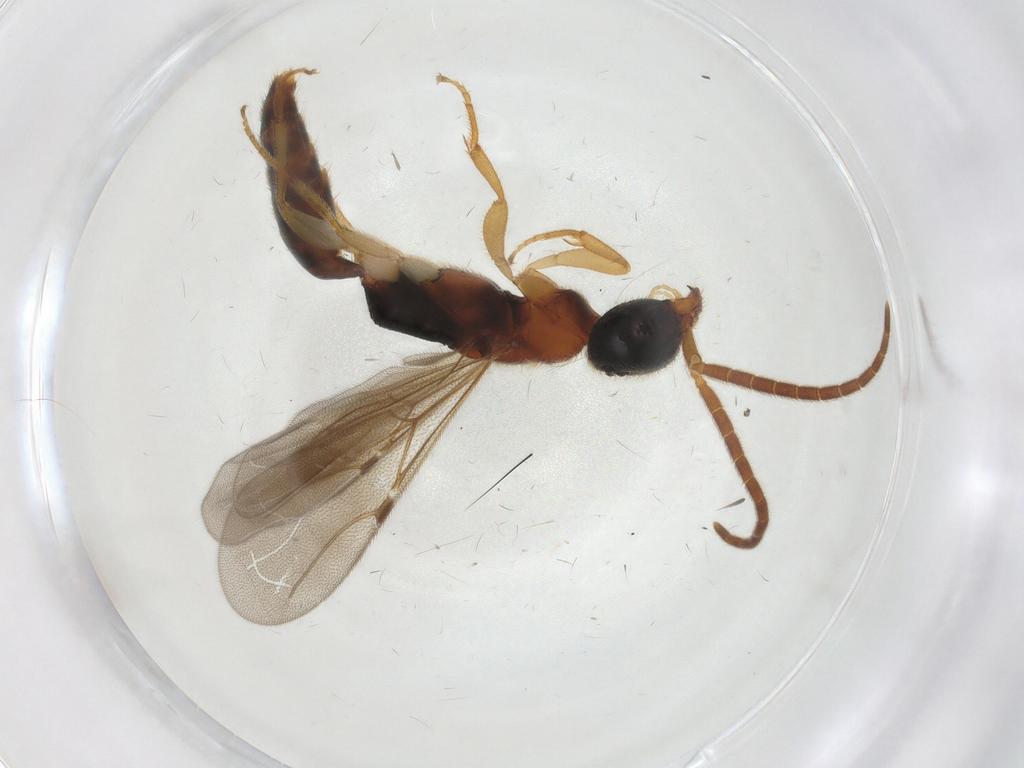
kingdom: Animalia
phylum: Arthropoda
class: Insecta
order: Hymenoptera
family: Bethylidae
